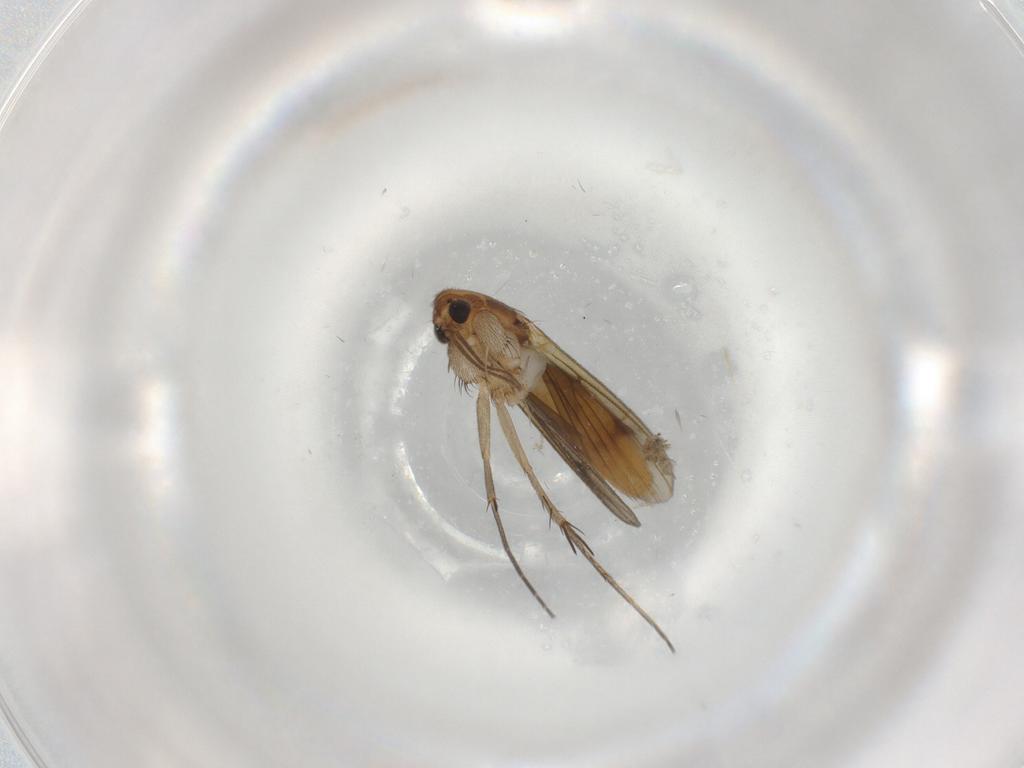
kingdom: Animalia
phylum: Arthropoda
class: Insecta
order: Diptera
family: Mycetophilidae
